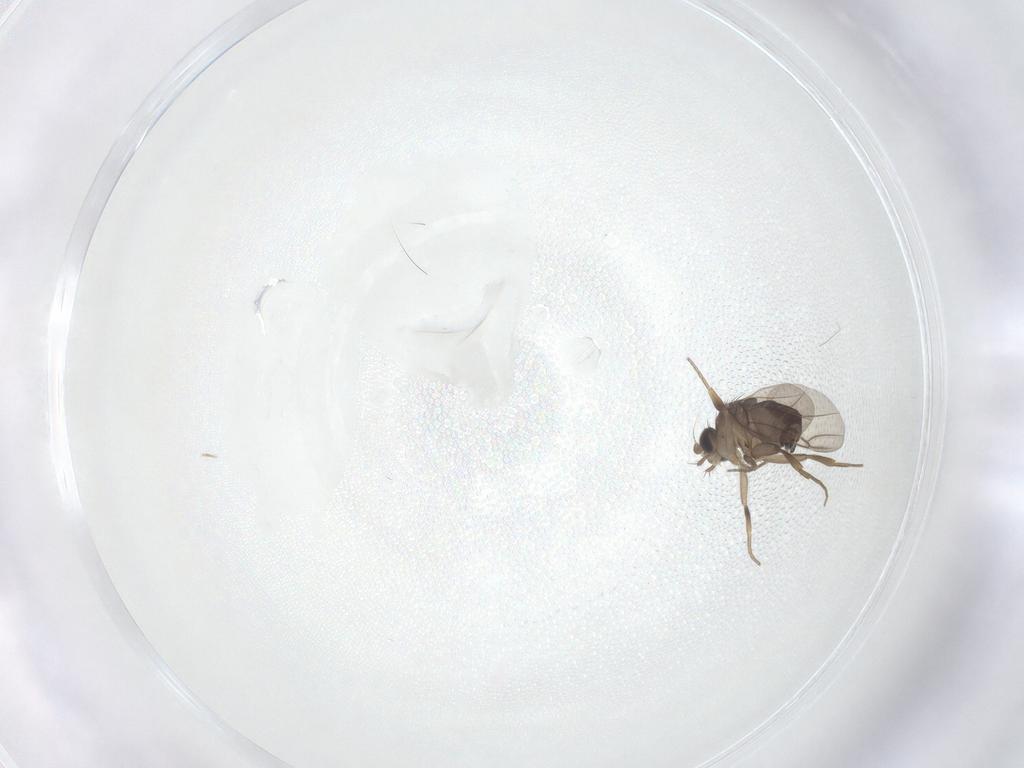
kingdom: Animalia
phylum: Arthropoda
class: Insecta
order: Diptera
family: Phoridae
